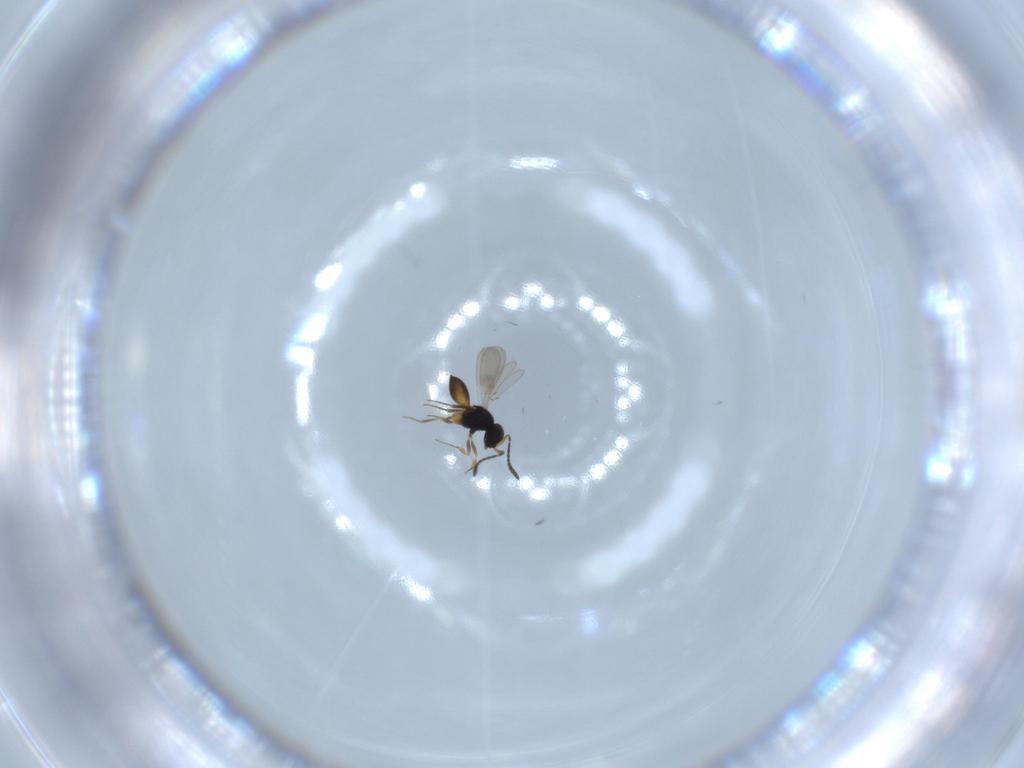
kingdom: Animalia
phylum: Arthropoda
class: Insecta
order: Hymenoptera
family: Scelionidae
